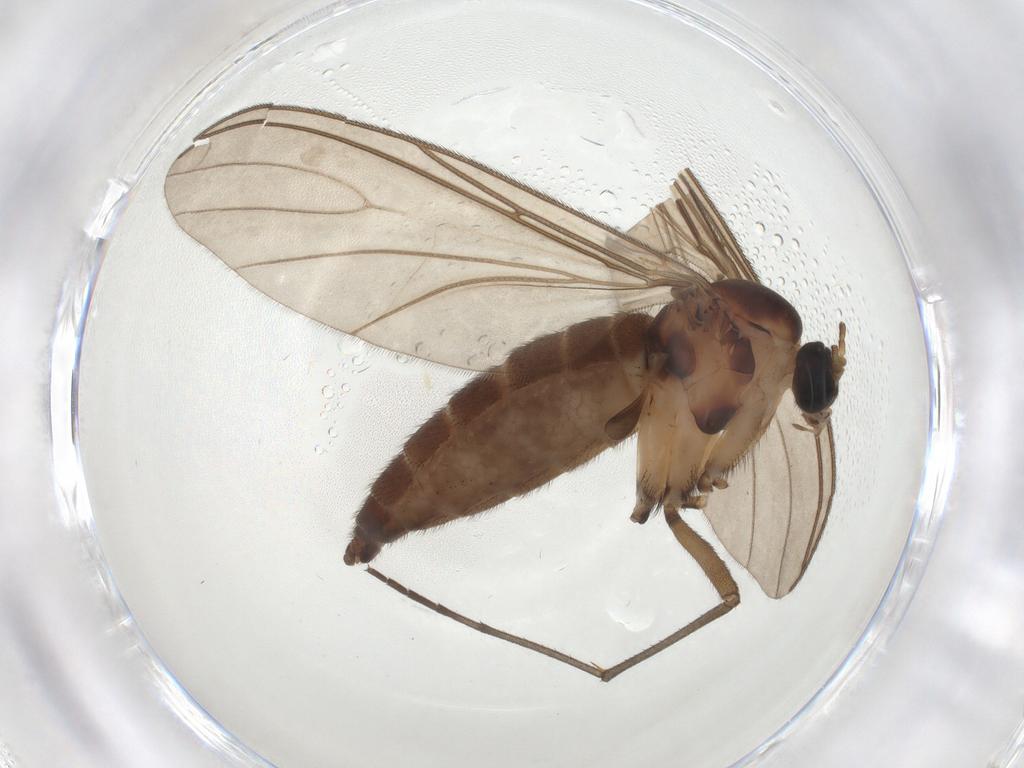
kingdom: Animalia
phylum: Arthropoda
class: Insecta
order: Diptera
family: Sciaridae
